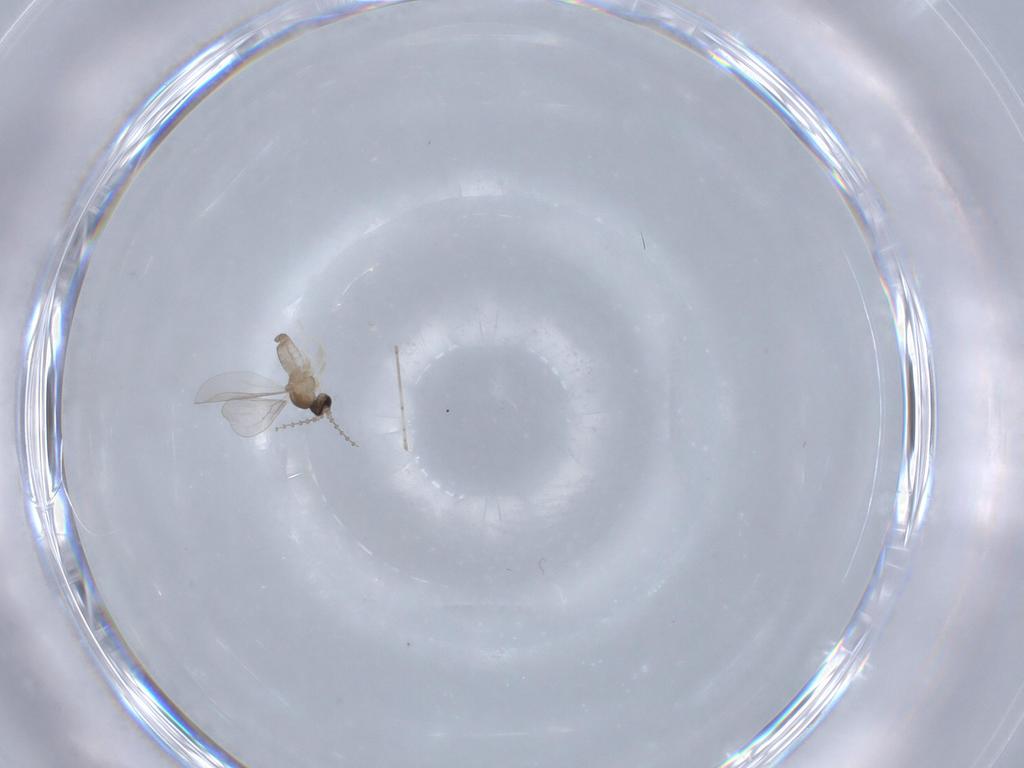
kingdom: Animalia
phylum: Arthropoda
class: Insecta
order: Diptera
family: Cecidomyiidae
